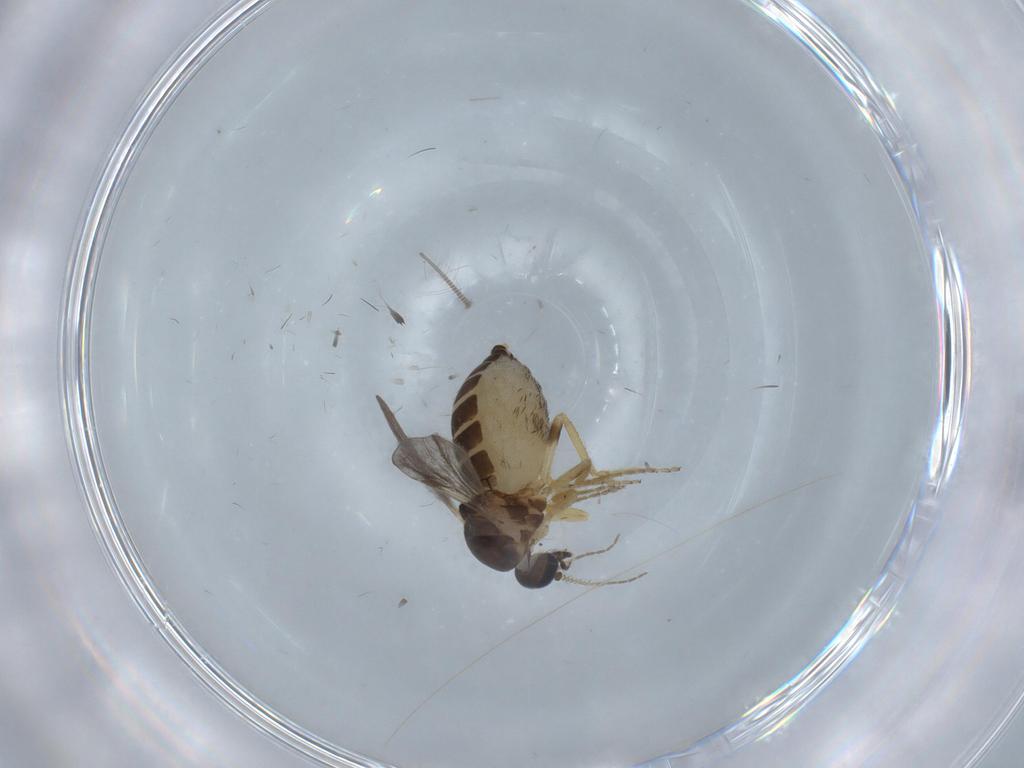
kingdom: Animalia
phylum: Arthropoda
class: Insecta
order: Diptera
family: Ceratopogonidae
